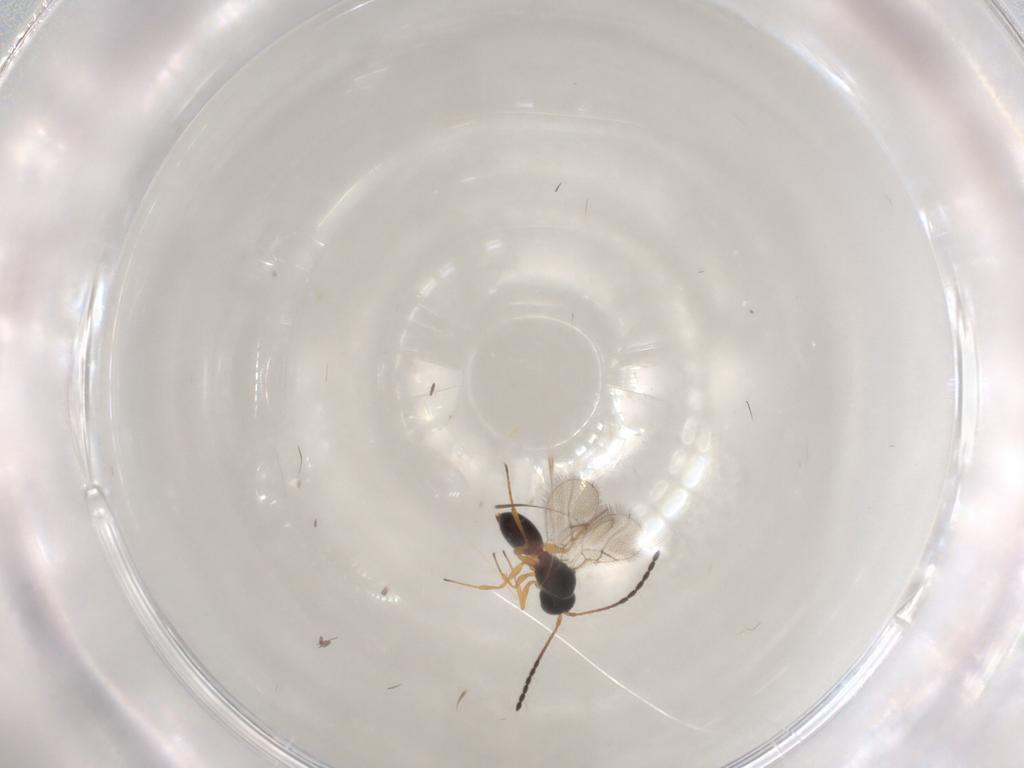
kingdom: Animalia
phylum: Arthropoda
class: Insecta
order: Hymenoptera
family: Figitidae
